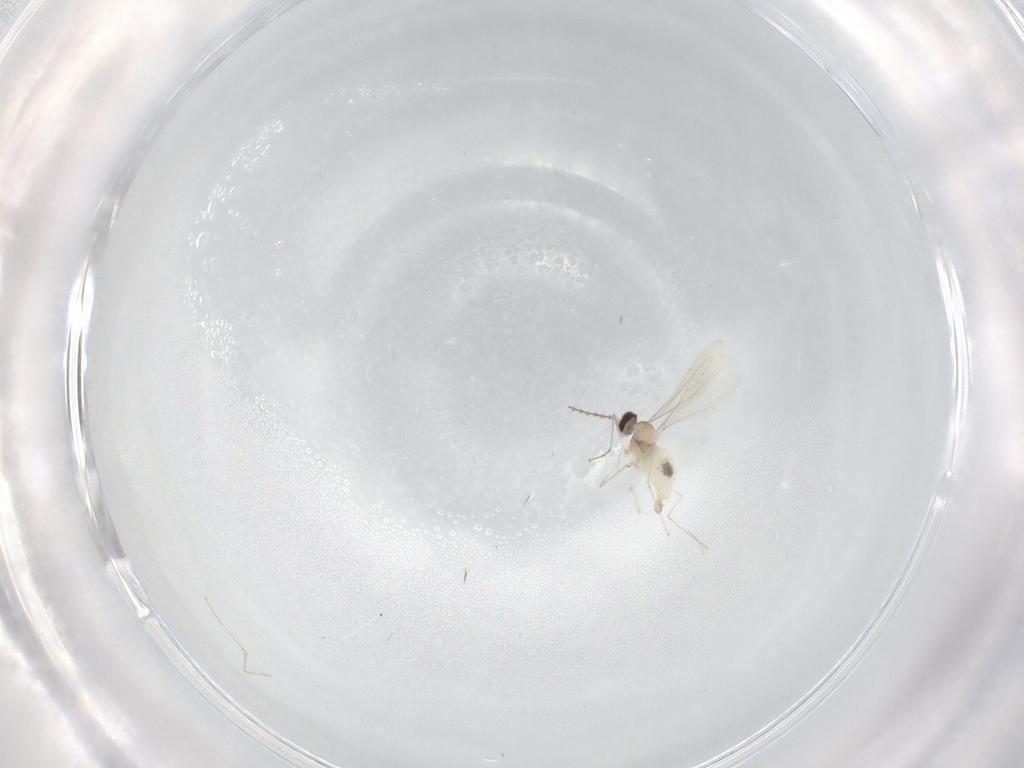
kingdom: Animalia
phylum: Arthropoda
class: Insecta
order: Diptera
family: Cecidomyiidae
